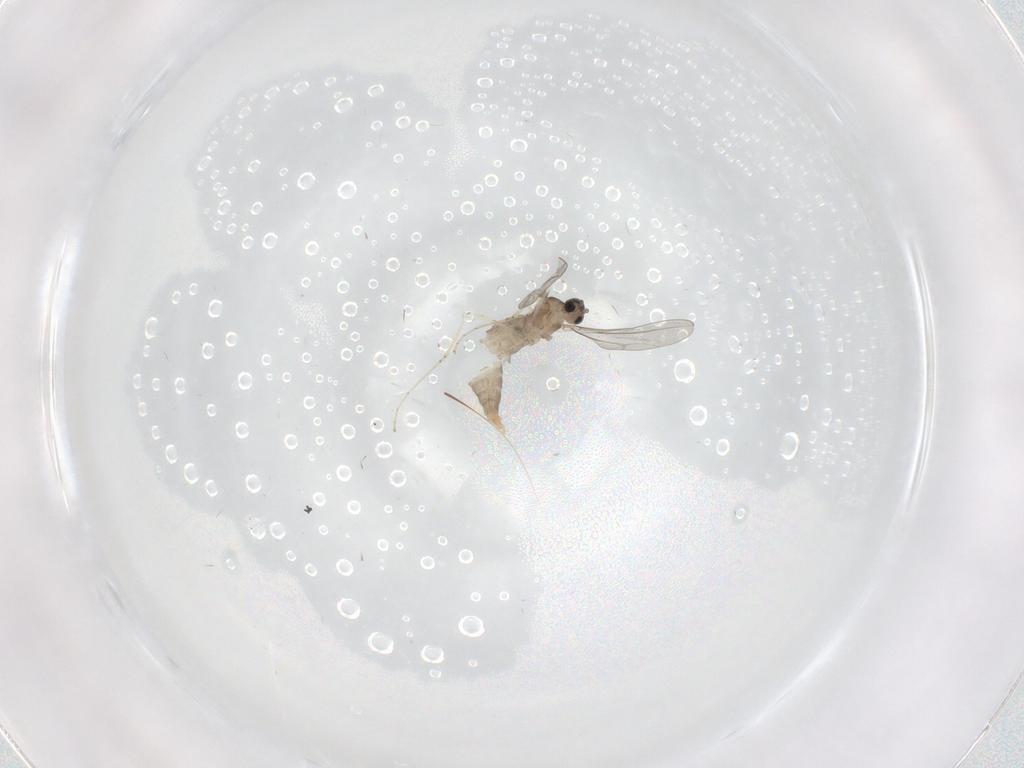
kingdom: Animalia
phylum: Arthropoda
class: Insecta
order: Diptera
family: Cecidomyiidae
